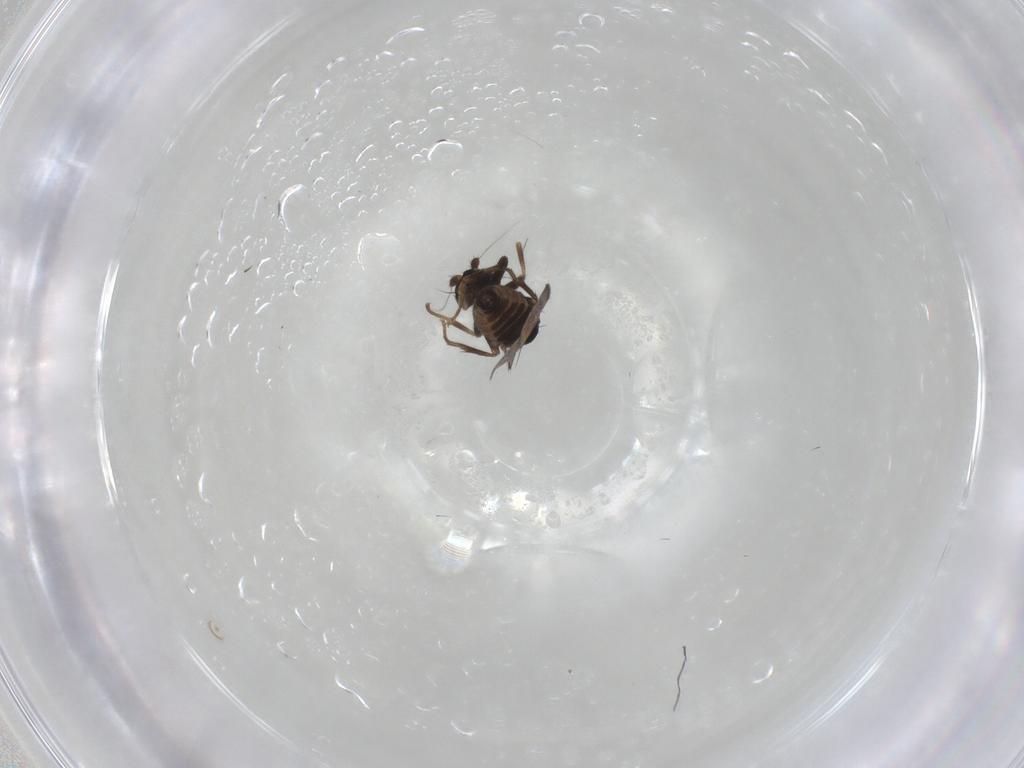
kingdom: Animalia
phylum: Arthropoda
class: Insecta
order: Diptera
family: Sphaeroceridae
